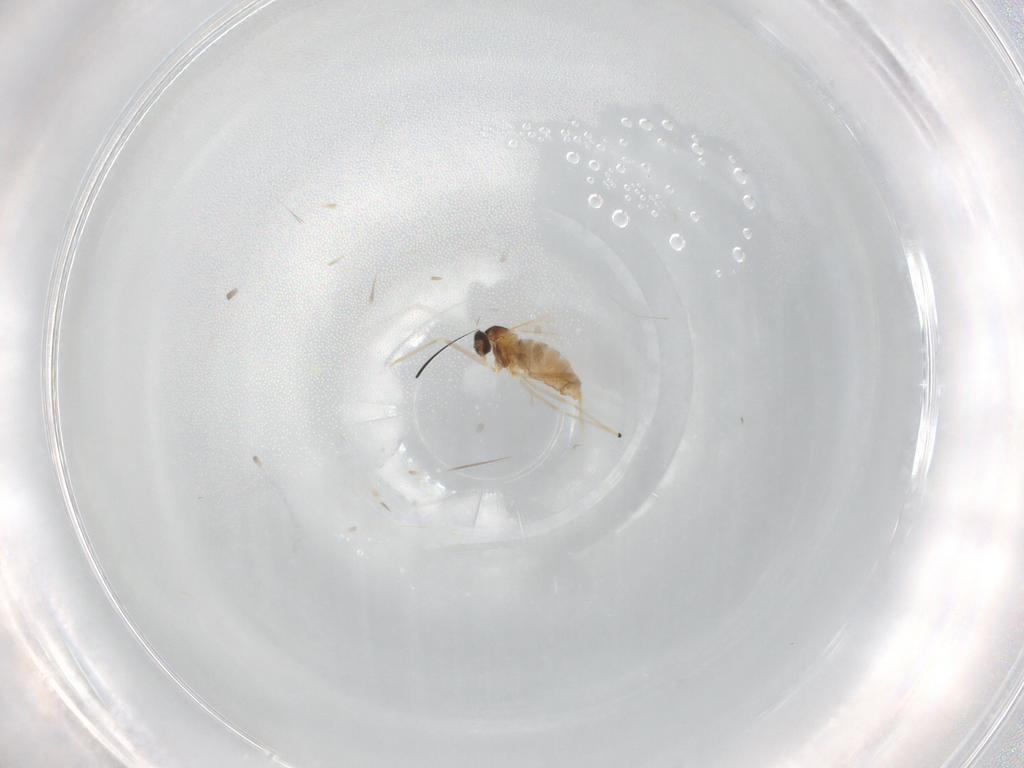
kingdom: Animalia
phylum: Arthropoda
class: Insecta
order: Diptera
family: Cecidomyiidae
